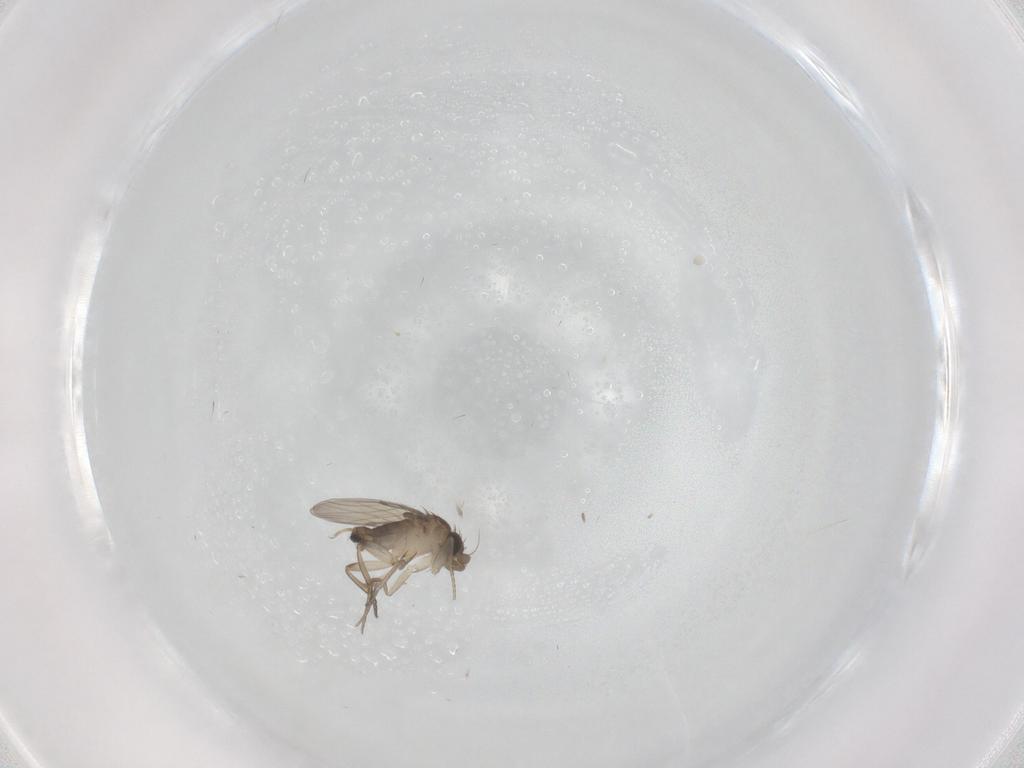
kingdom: Animalia
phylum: Arthropoda
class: Insecta
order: Diptera
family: Phoridae
